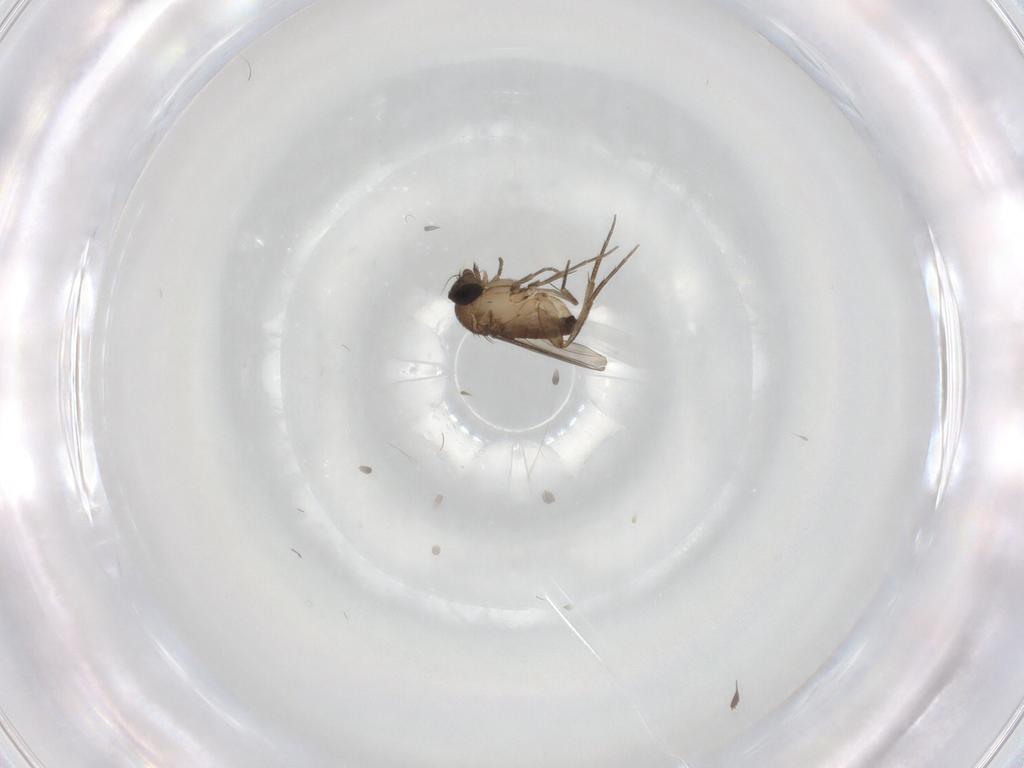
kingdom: Animalia
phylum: Arthropoda
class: Insecta
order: Diptera
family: Phoridae
